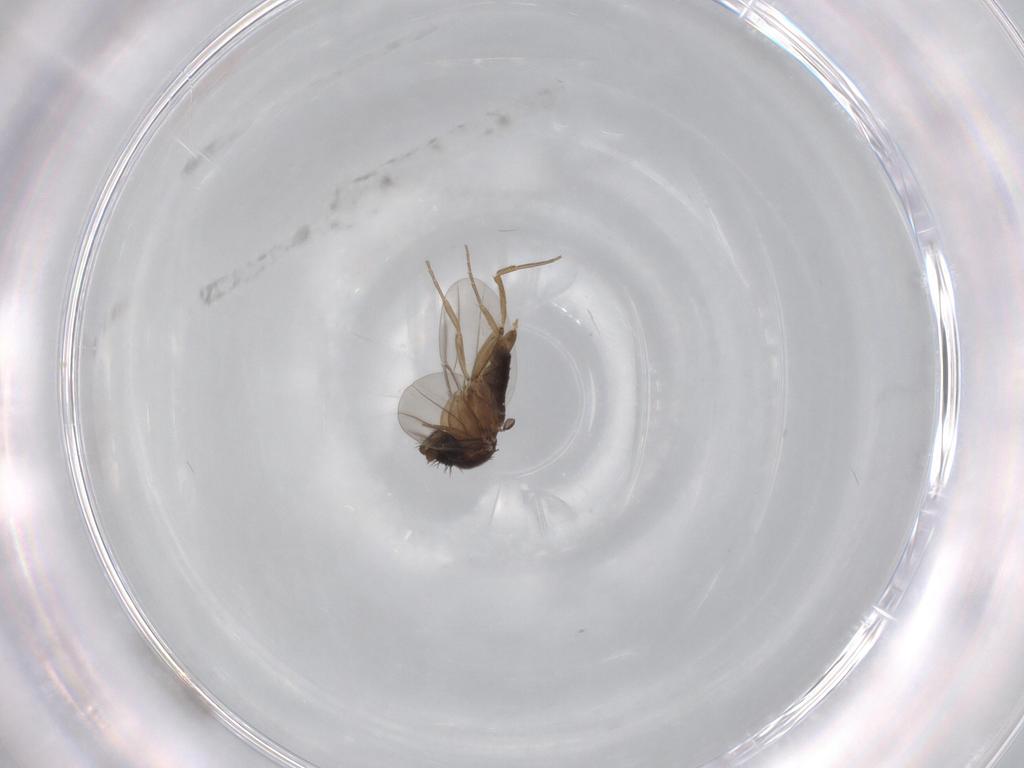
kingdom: Animalia
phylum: Arthropoda
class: Insecta
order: Diptera
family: Phoridae
